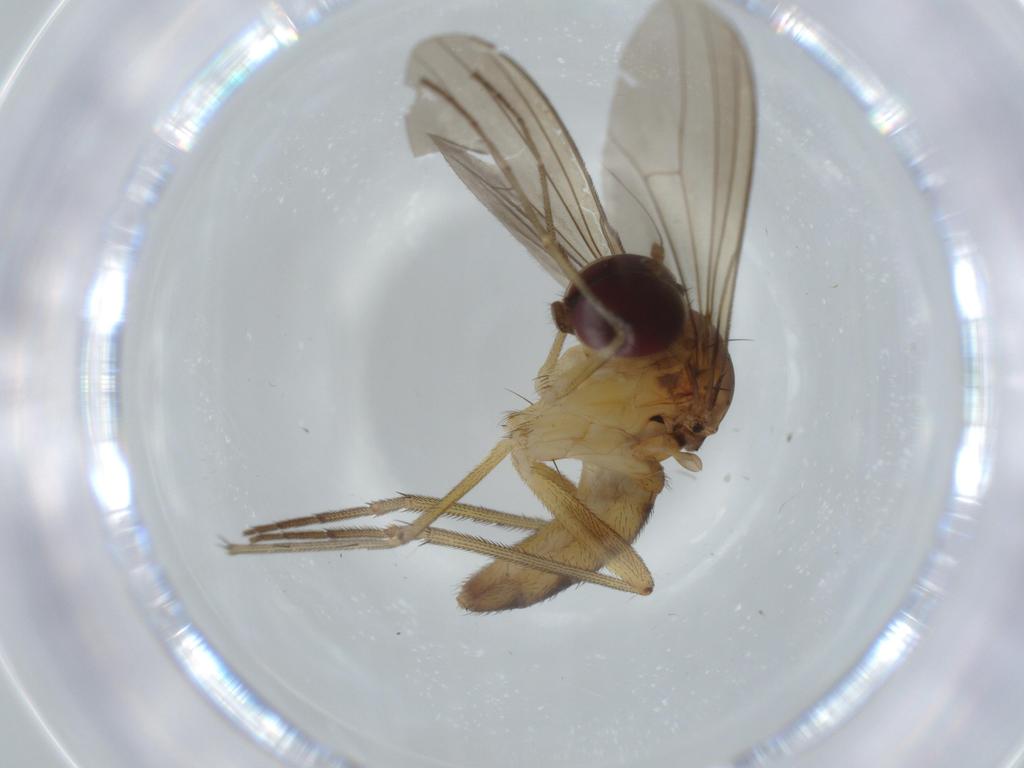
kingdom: Animalia
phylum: Arthropoda
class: Insecta
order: Diptera
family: Dolichopodidae
